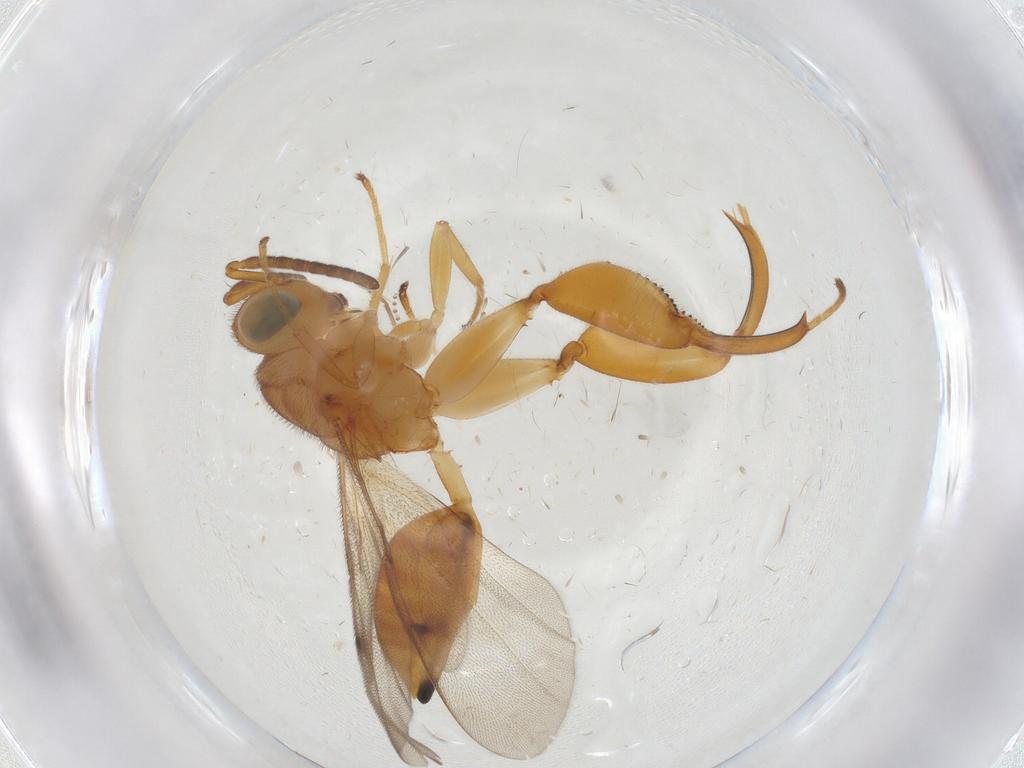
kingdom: Animalia
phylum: Arthropoda
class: Insecta
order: Hymenoptera
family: Chalcididae
